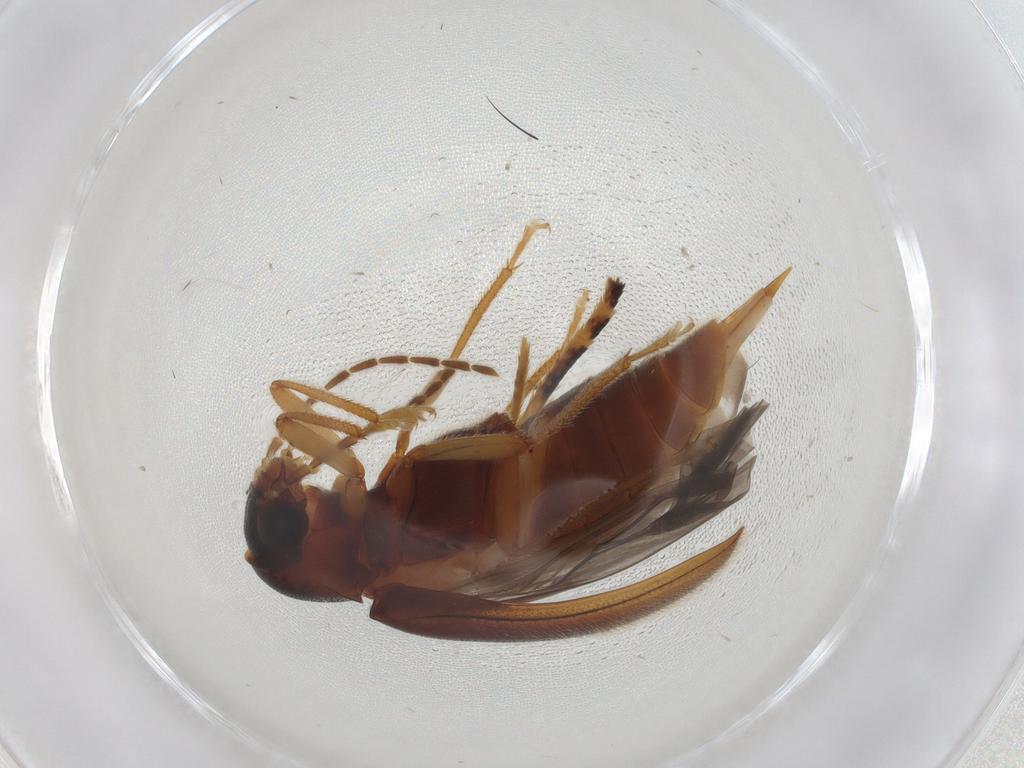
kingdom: Animalia
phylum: Arthropoda
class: Insecta
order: Coleoptera
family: Ptilodactylidae
